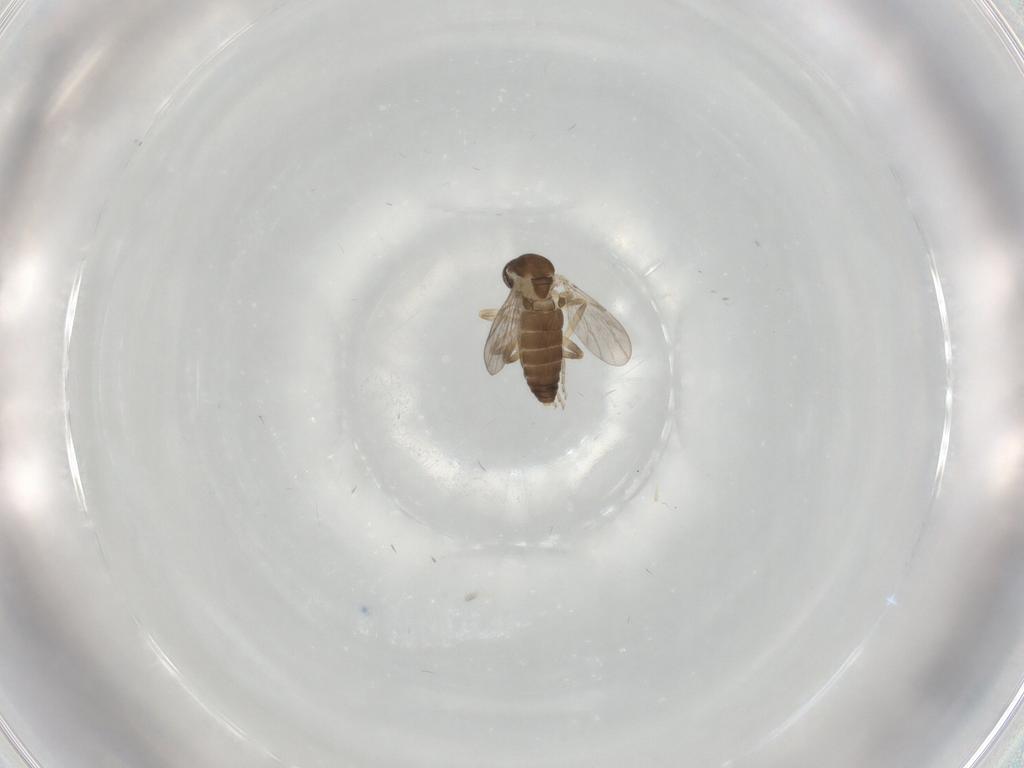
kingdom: Animalia
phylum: Arthropoda
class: Insecta
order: Diptera
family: Ceratopogonidae
